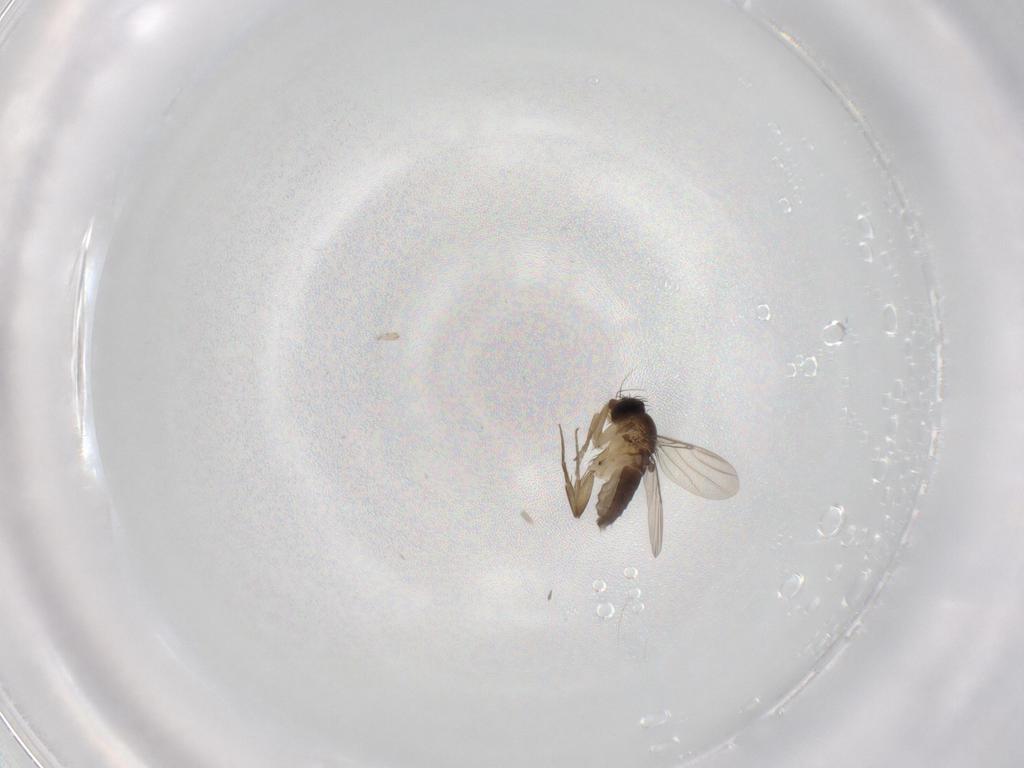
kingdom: Animalia
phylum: Arthropoda
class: Insecta
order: Diptera
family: Phoridae
